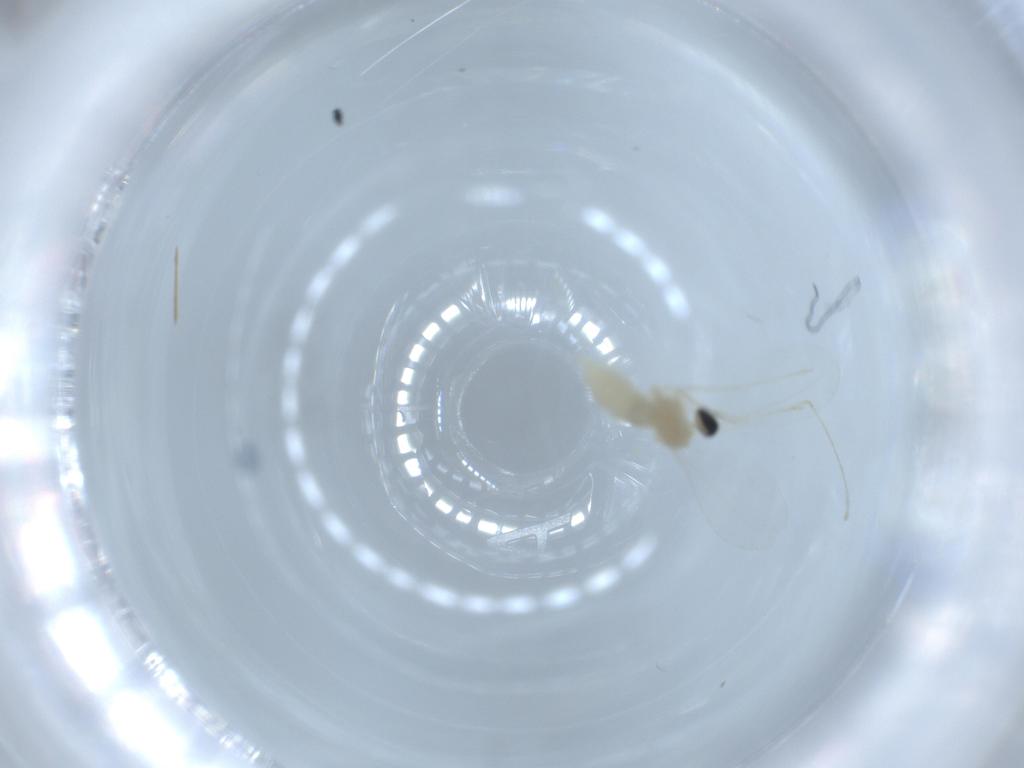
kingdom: Animalia
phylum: Arthropoda
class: Insecta
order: Diptera
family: Cecidomyiidae
